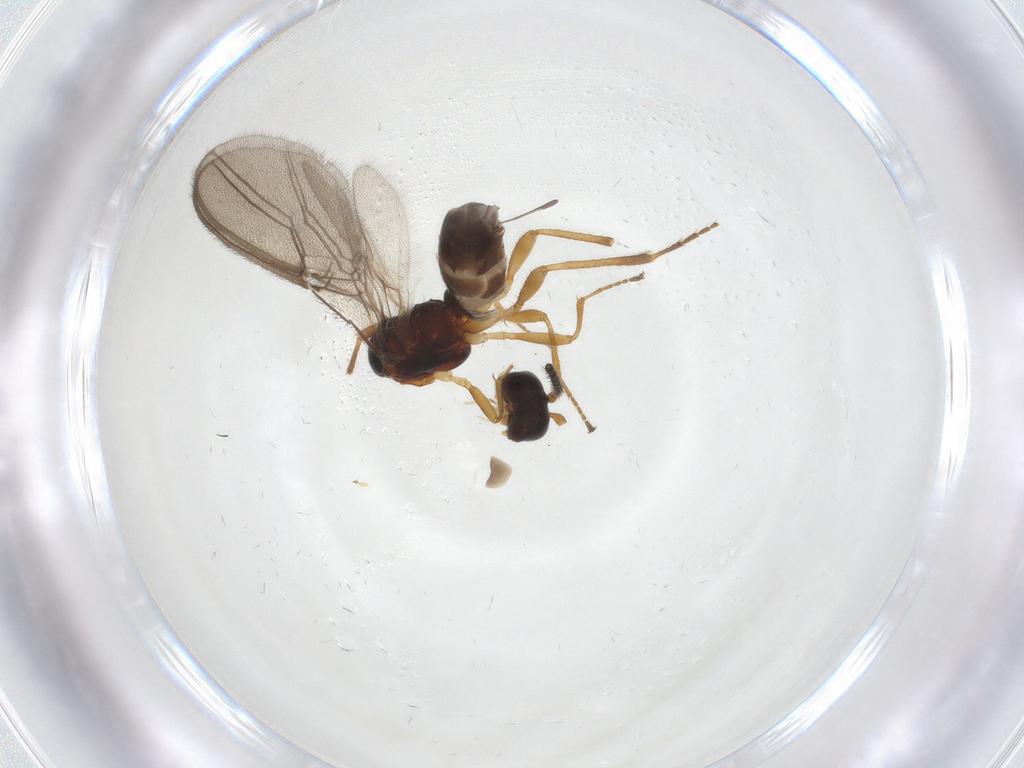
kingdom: Animalia
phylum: Arthropoda
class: Insecta
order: Hymenoptera
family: Braconidae
